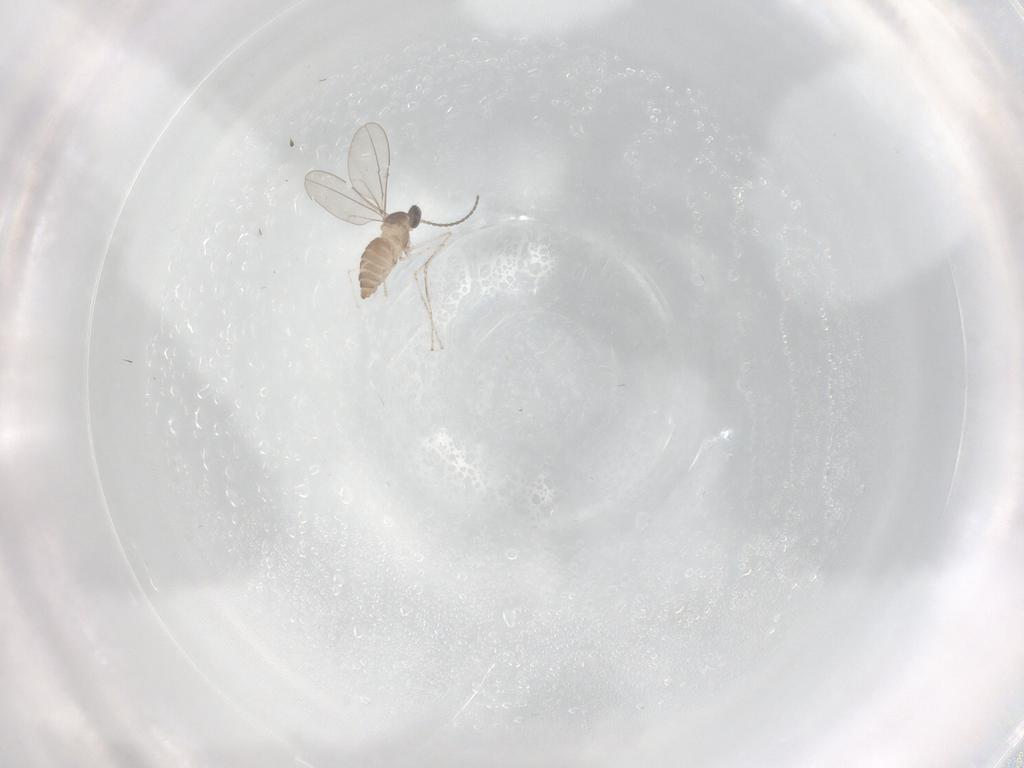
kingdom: Animalia
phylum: Arthropoda
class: Insecta
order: Diptera
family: Cecidomyiidae
